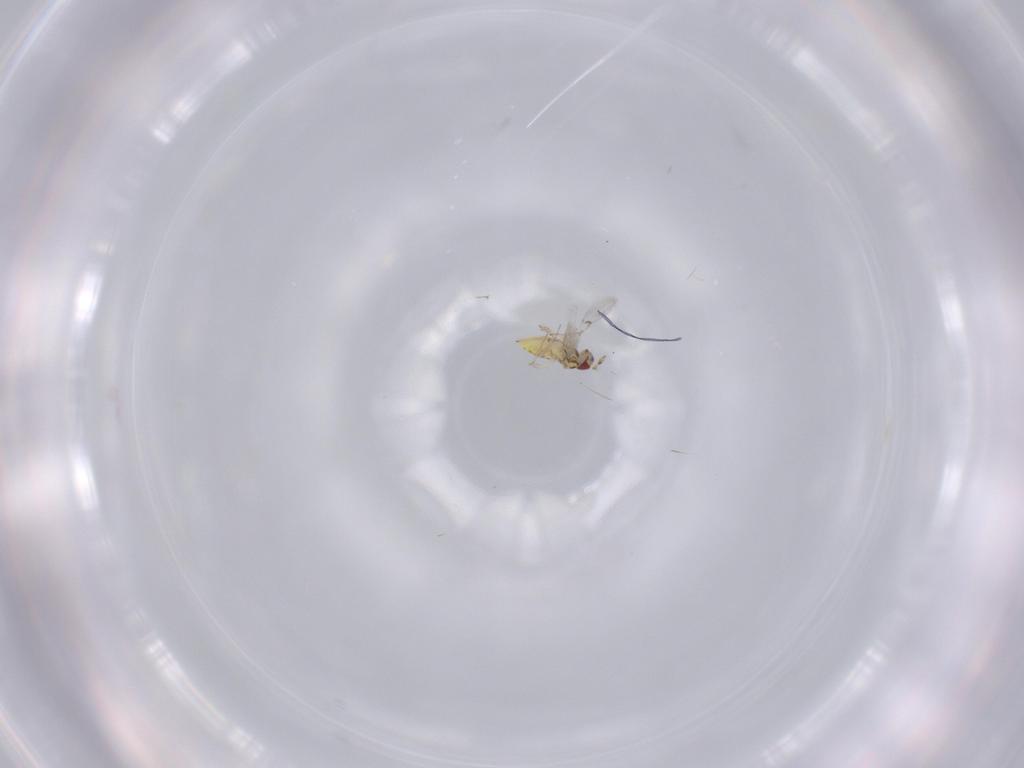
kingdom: Animalia
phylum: Arthropoda
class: Insecta
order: Hymenoptera
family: Trichogrammatidae
